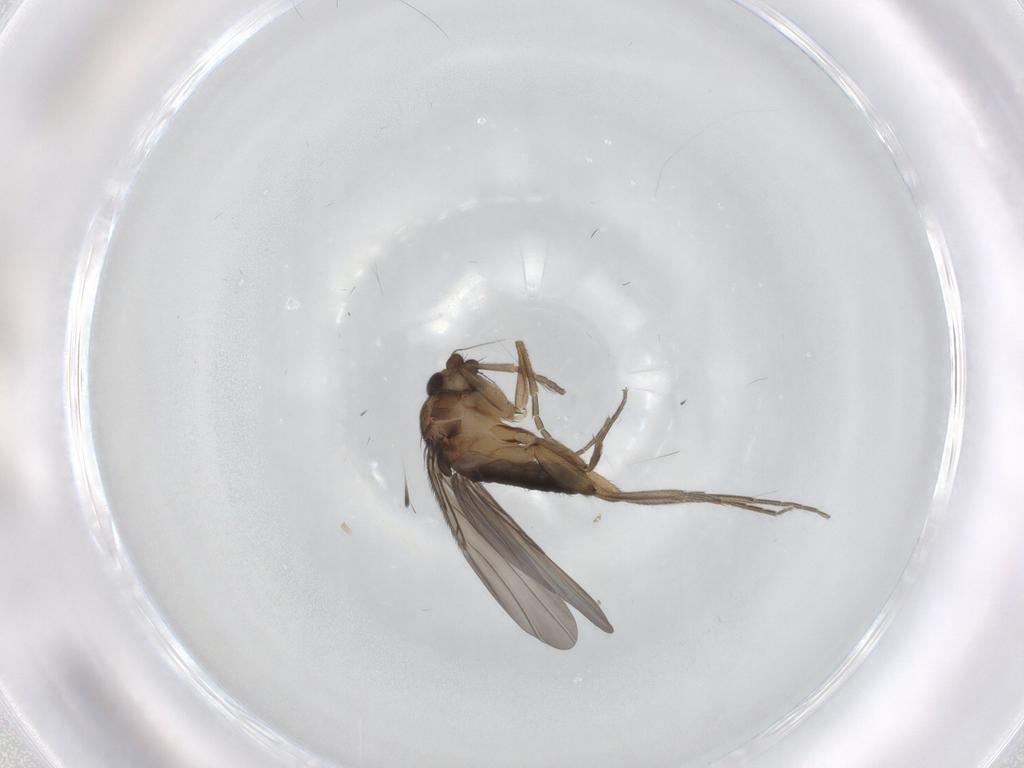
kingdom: Animalia
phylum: Arthropoda
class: Insecta
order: Diptera
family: Phoridae
